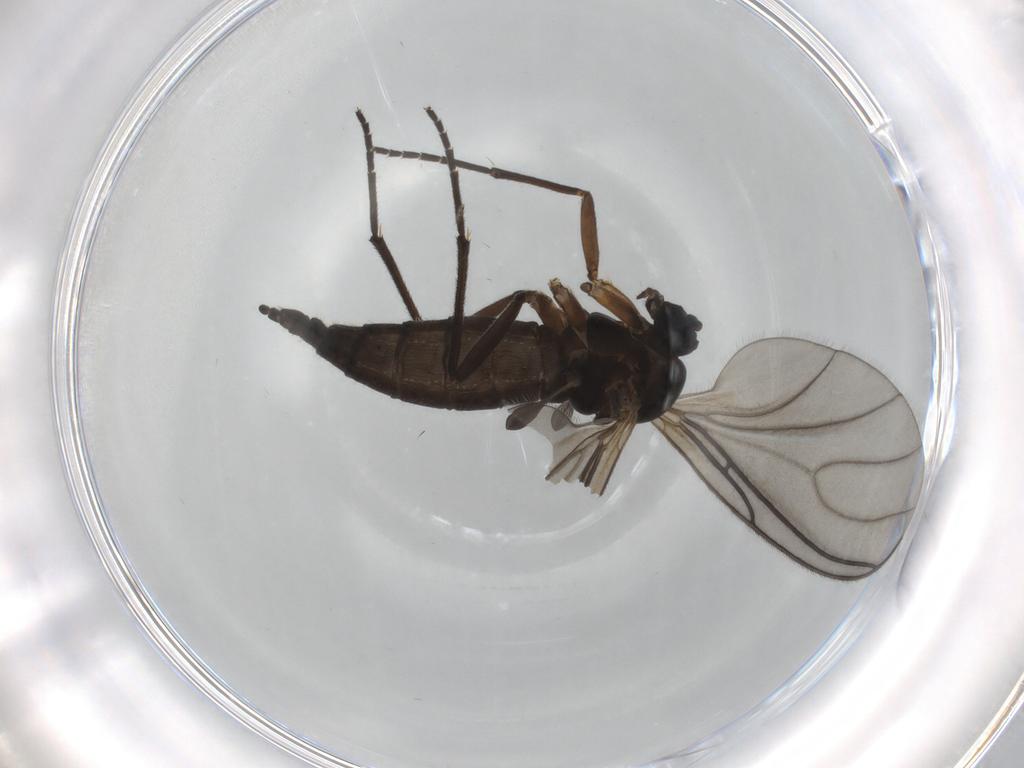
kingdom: Animalia
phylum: Arthropoda
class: Insecta
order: Diptera
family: Sciaridae
